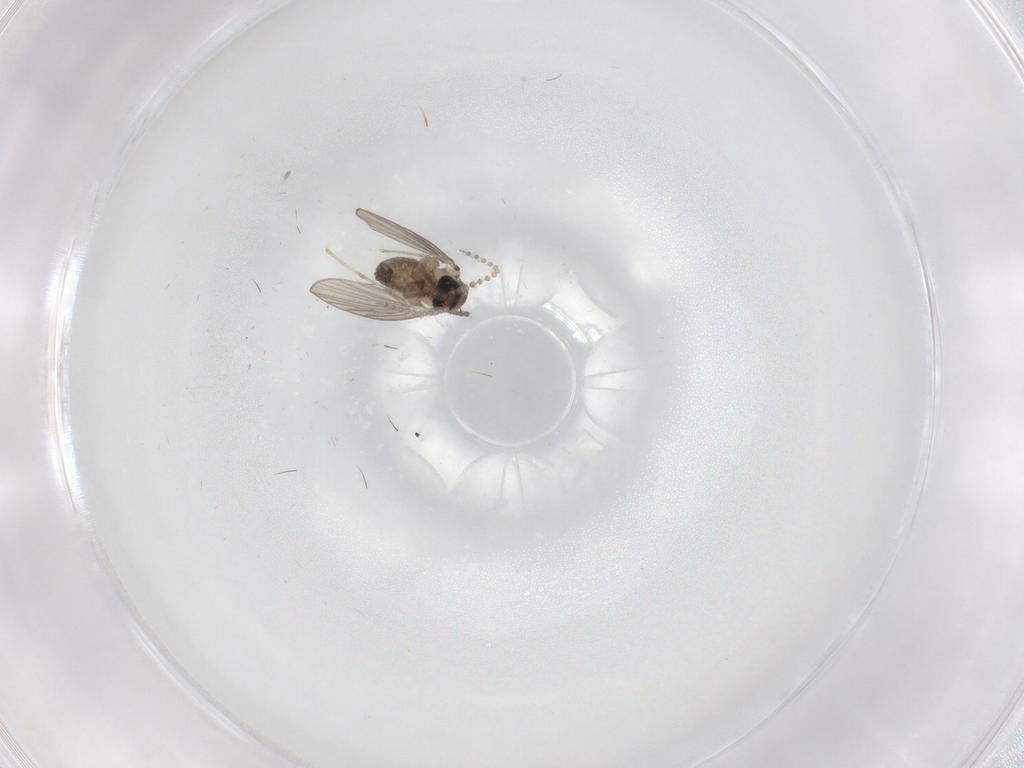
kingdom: Animalia
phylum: Arthropoda
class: Insecta
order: Diptera
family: Psychodidae
